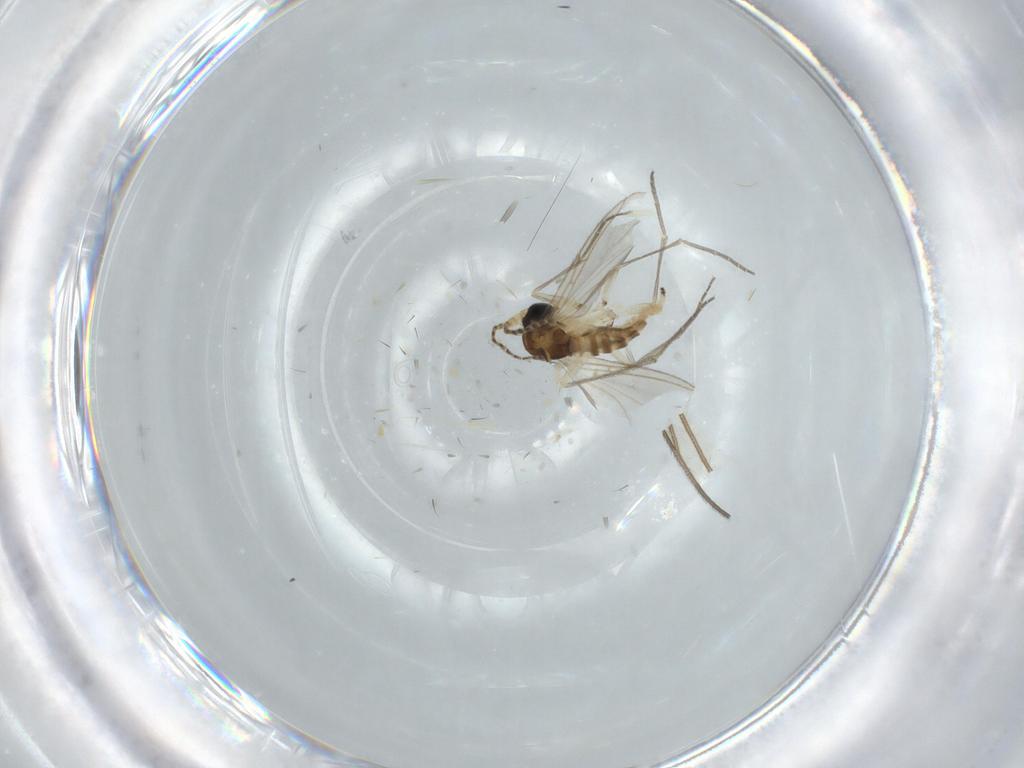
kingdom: Animalia
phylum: Arthropoda
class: Insecta
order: Diptera
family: Sciaridae
